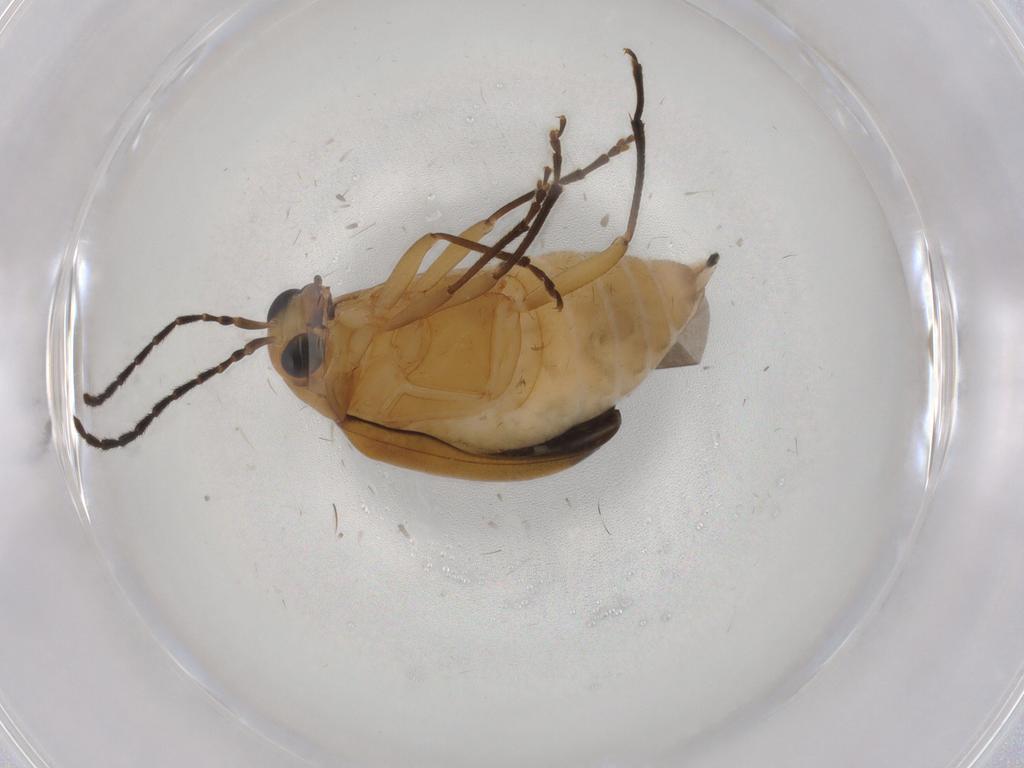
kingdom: Animalia
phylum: Arthropoda
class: Insecta
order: Coleoptera
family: Chrysomelidae
